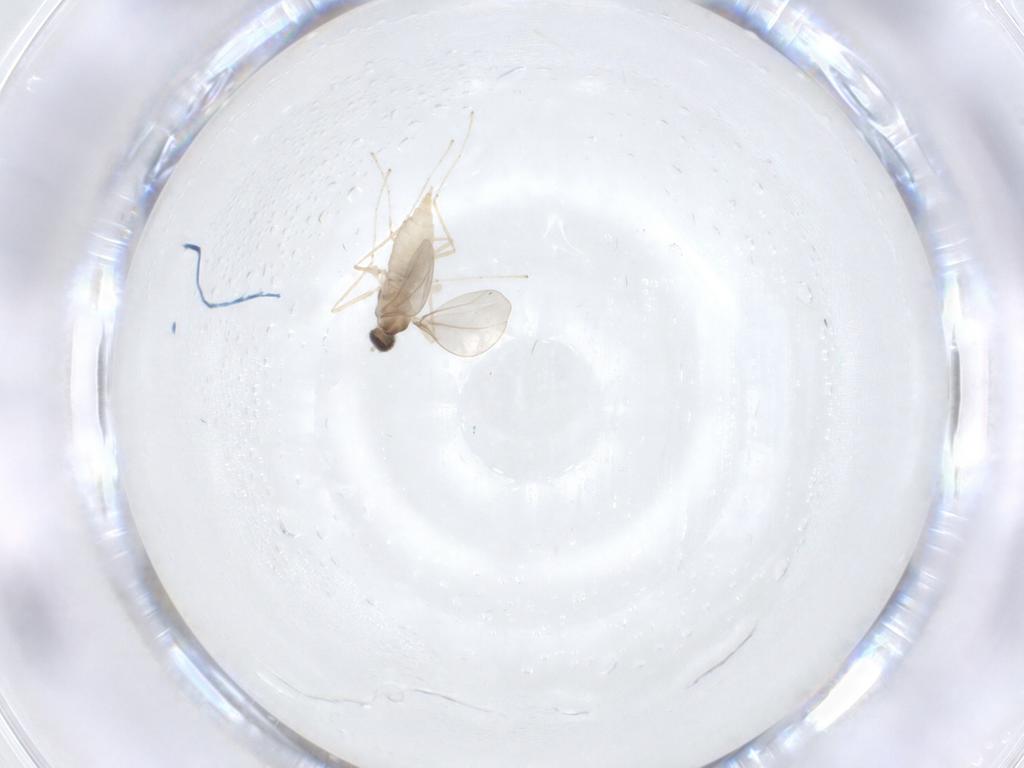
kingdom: Animalia
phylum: Arthropoda
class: Insecta
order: Diptera
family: Cecidomyiidae
